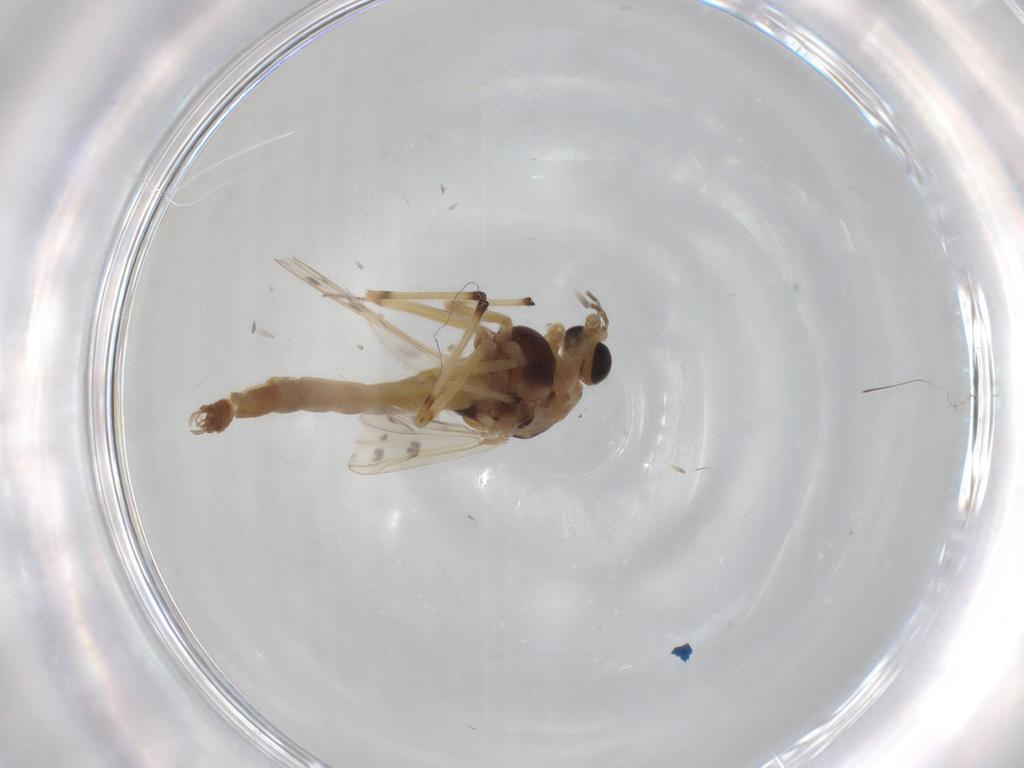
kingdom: Animalia
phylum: Arthropoda
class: Insecta
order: Diptera
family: Chironomidae
